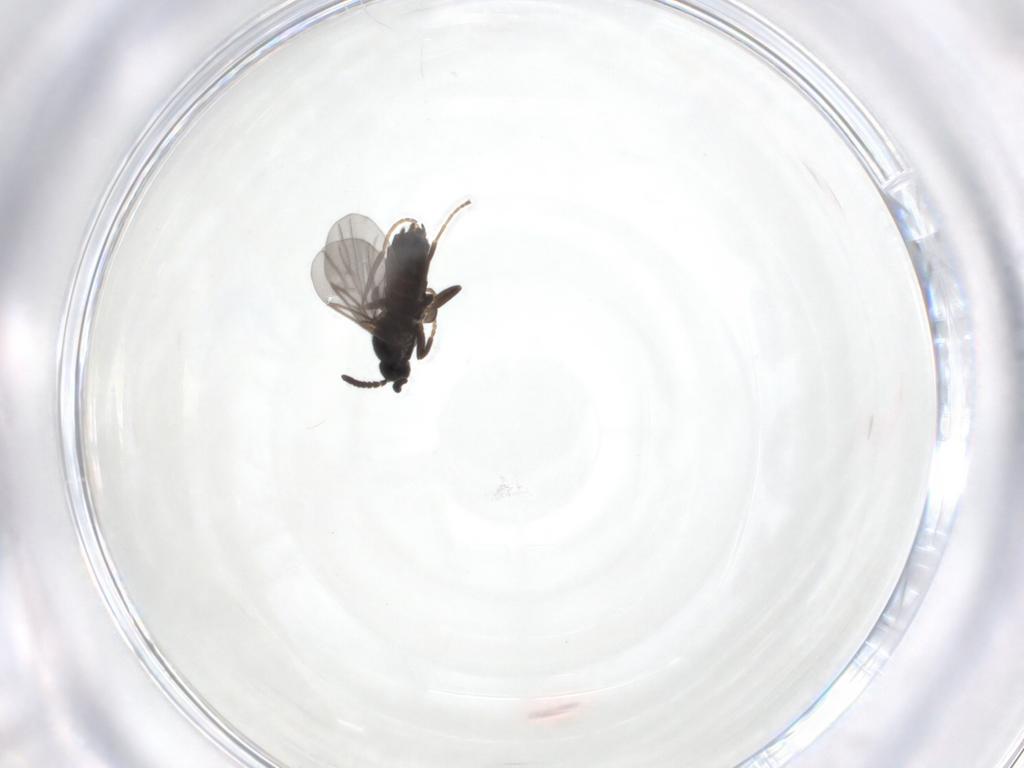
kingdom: Animalia
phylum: Arthropoda
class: Insecta
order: Diptera
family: Scatopsidae
